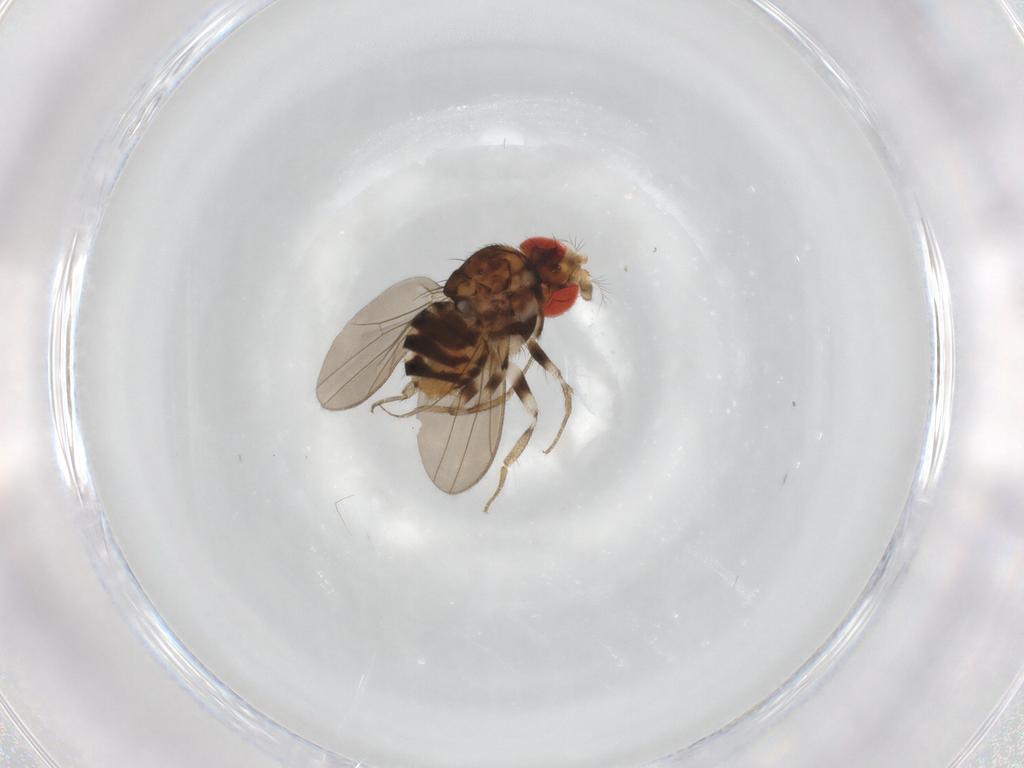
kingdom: Animalia
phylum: Arthropoda
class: Insecta
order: Diptera
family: Drosophilidae
